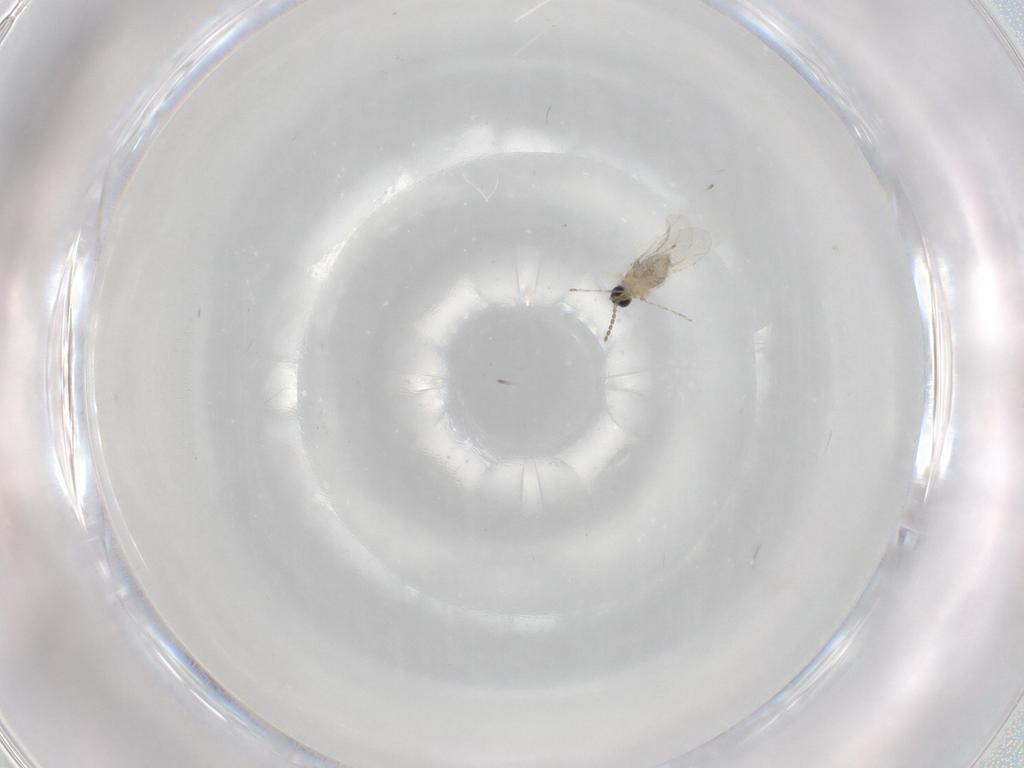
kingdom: Animalia
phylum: Arthropoda
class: Insecta
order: Diptera
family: Cecidomyiidae
